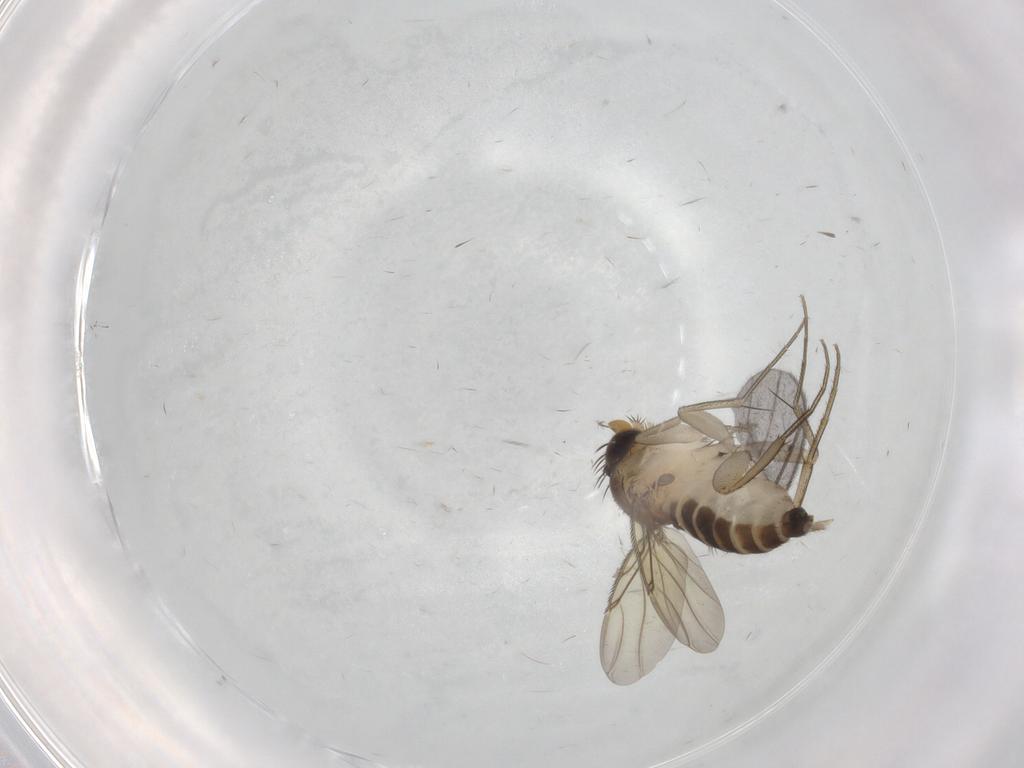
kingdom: Animalia
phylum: Arthropoda
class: Insecta
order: Diptera
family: Phoridae
